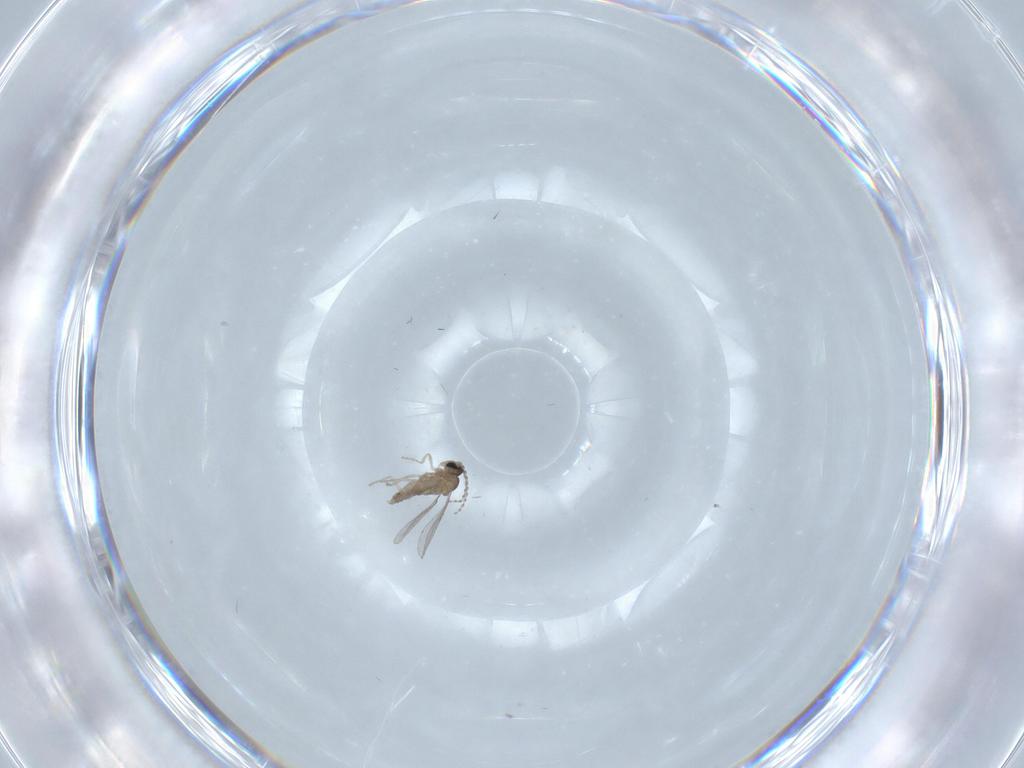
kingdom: Animalia
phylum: Arthropoda
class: Insecta
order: Diptera
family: Cecidomyiidae
